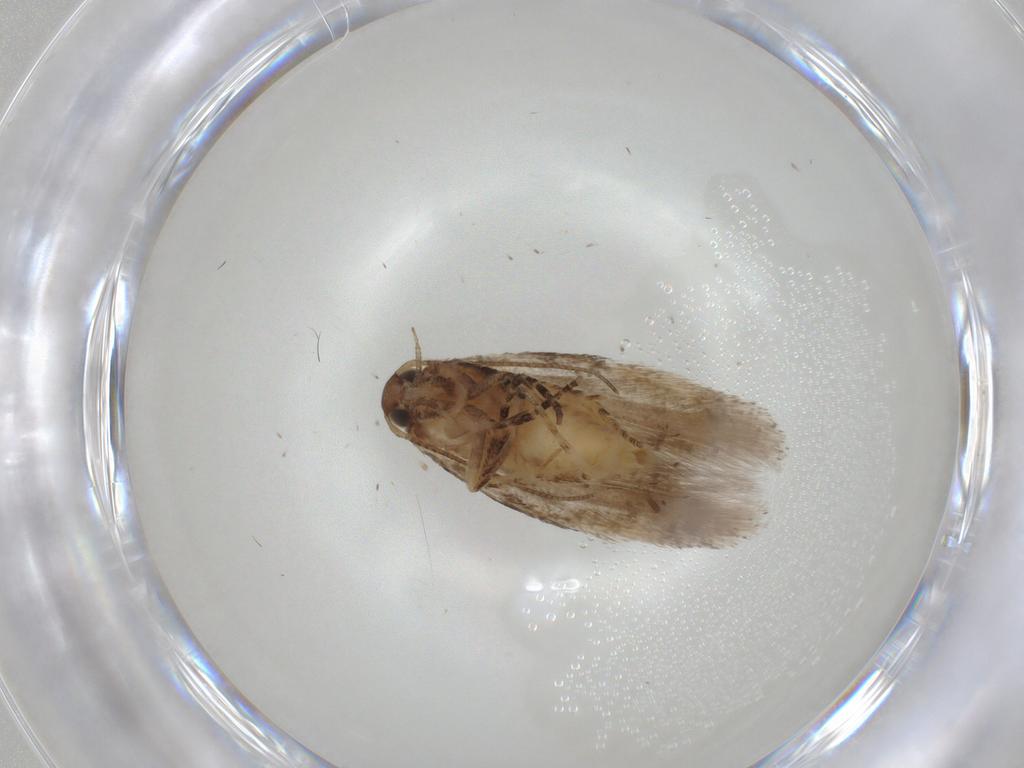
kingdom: Animalia
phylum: Arthropoda
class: Insecta
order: Lepidoptera
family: Gelechiidae
